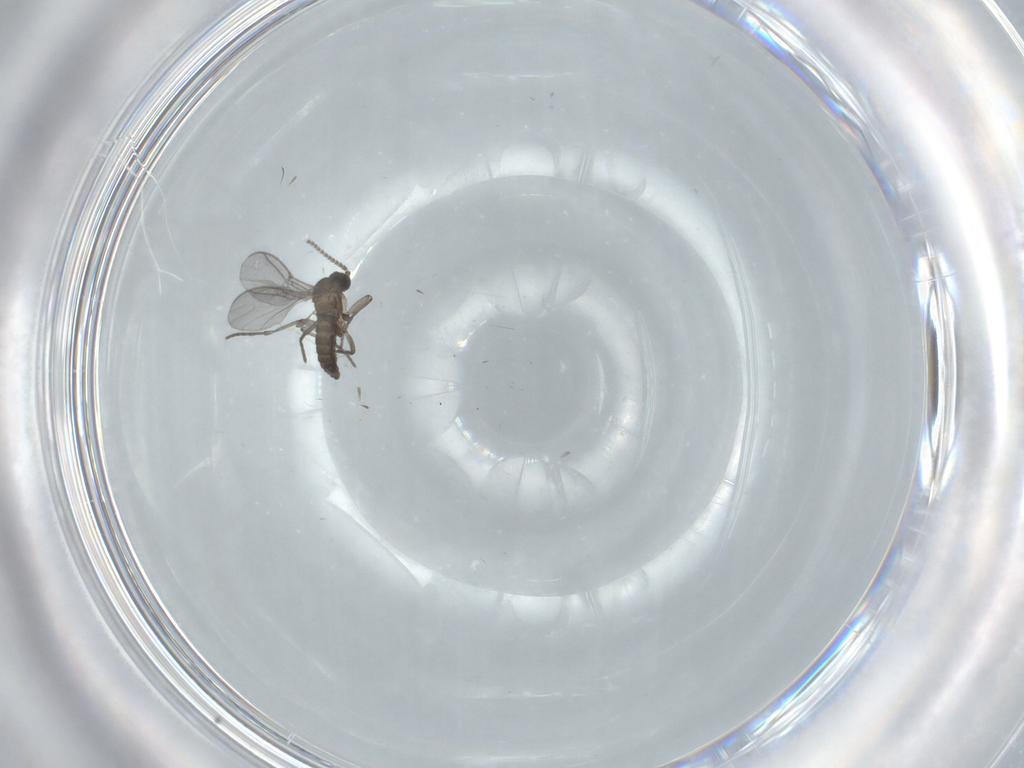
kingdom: Animalia
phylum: Arthropoda
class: Insecta
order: Diptera
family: Sciaridae
